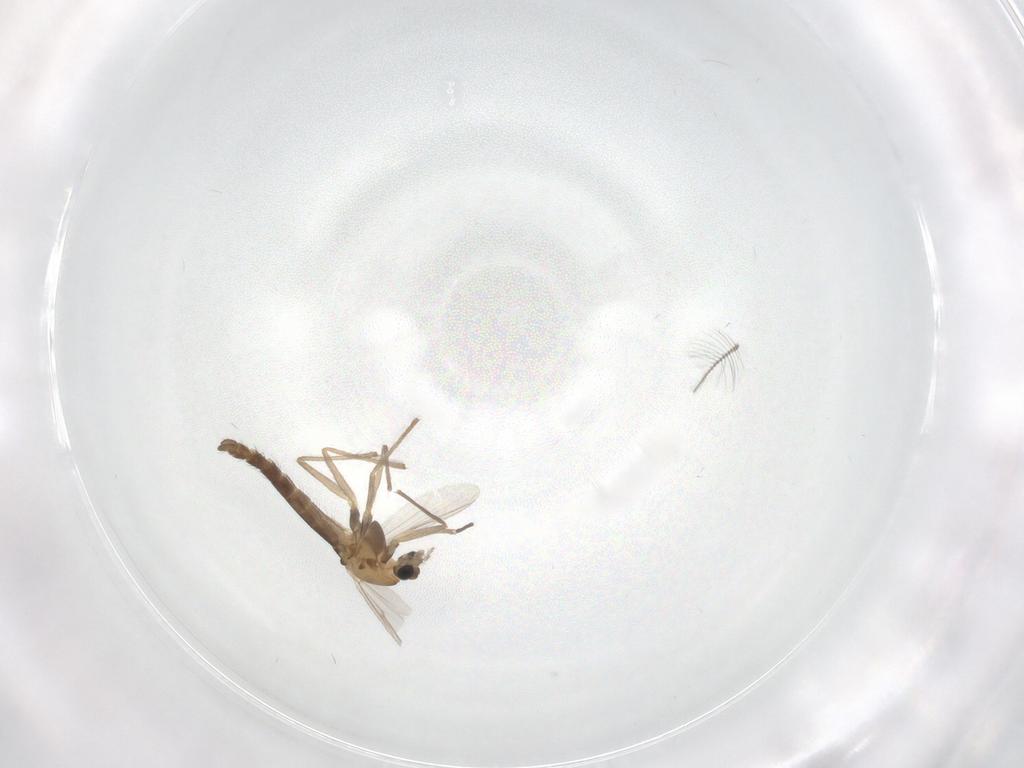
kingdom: Animalia
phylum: Arthropoda
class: Insecta
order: Diptera
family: Chironomidae
